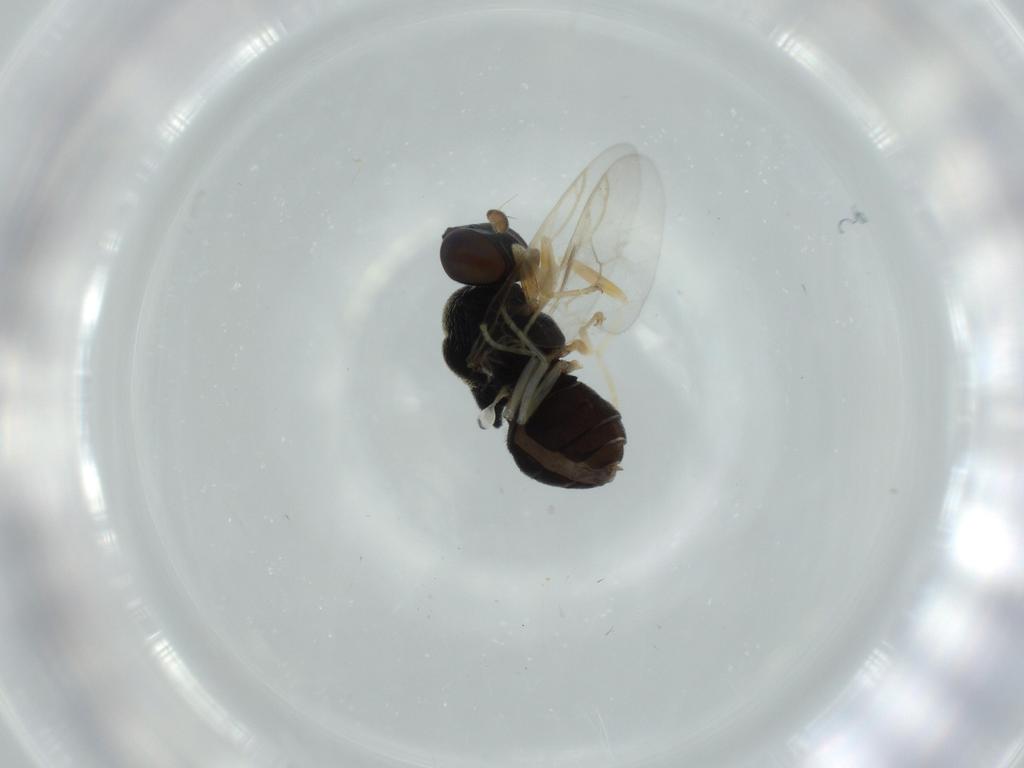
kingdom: Animalia
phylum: Arthropoda
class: Insecta
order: Diptera
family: Stratiomyidae
